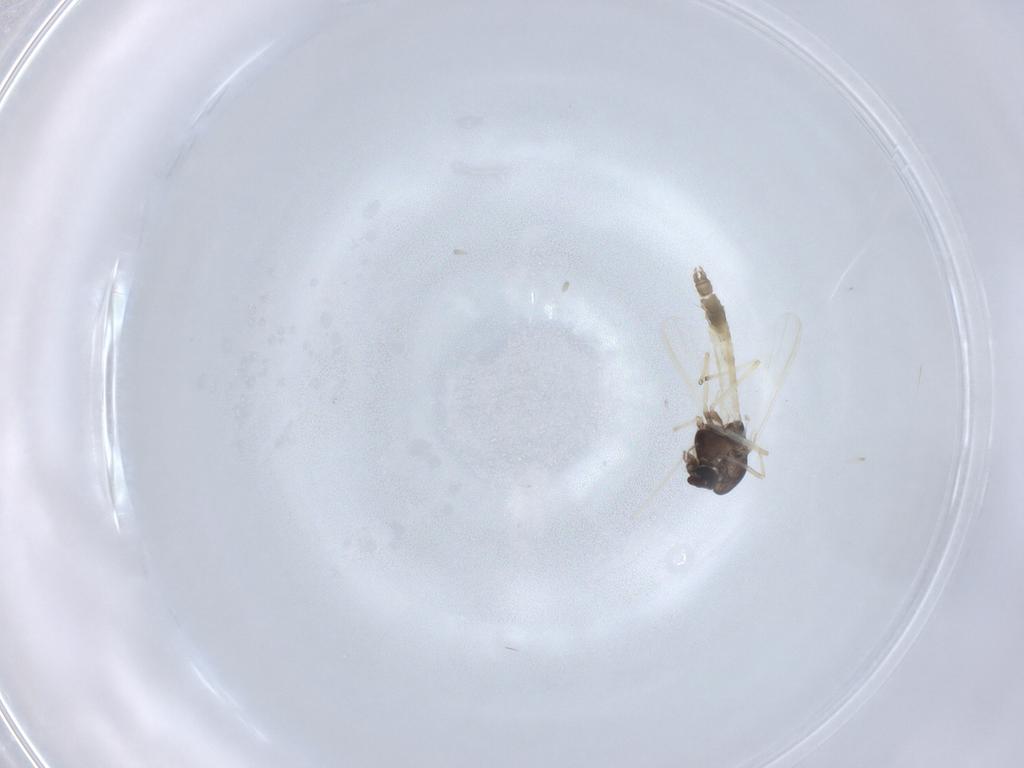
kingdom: Animalia
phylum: Arthropoda
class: Insecta
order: Diptera
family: Chironomidae
